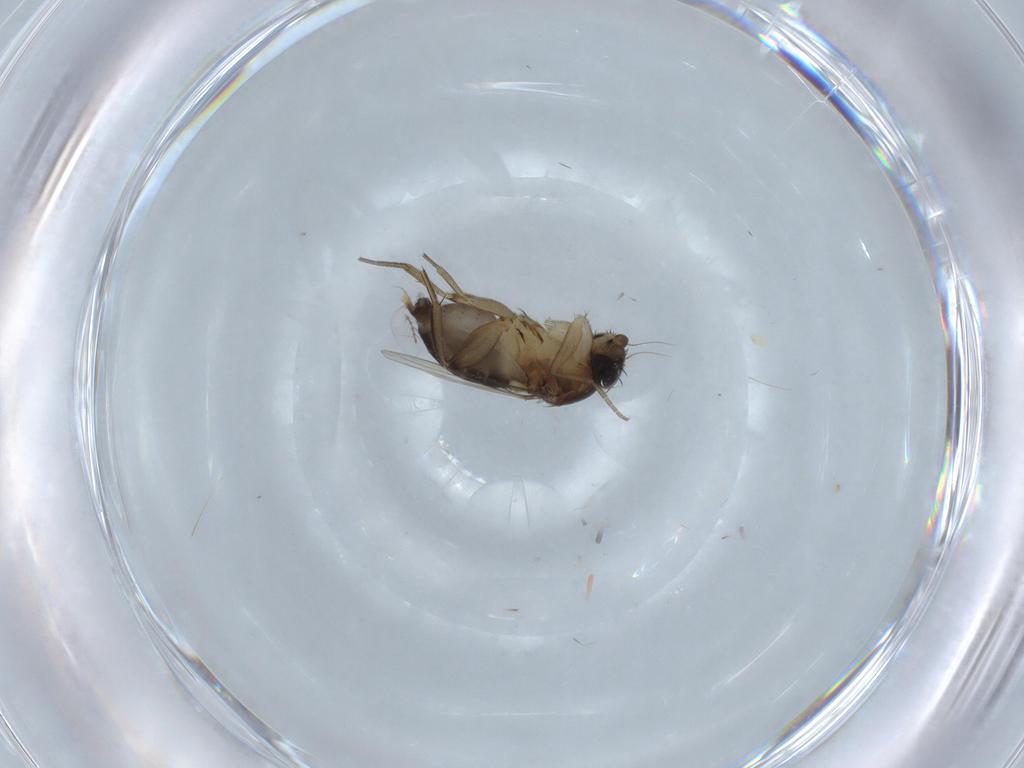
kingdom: Animalia
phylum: Arthropoda
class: Insecta
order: Diptera
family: Phoridae
